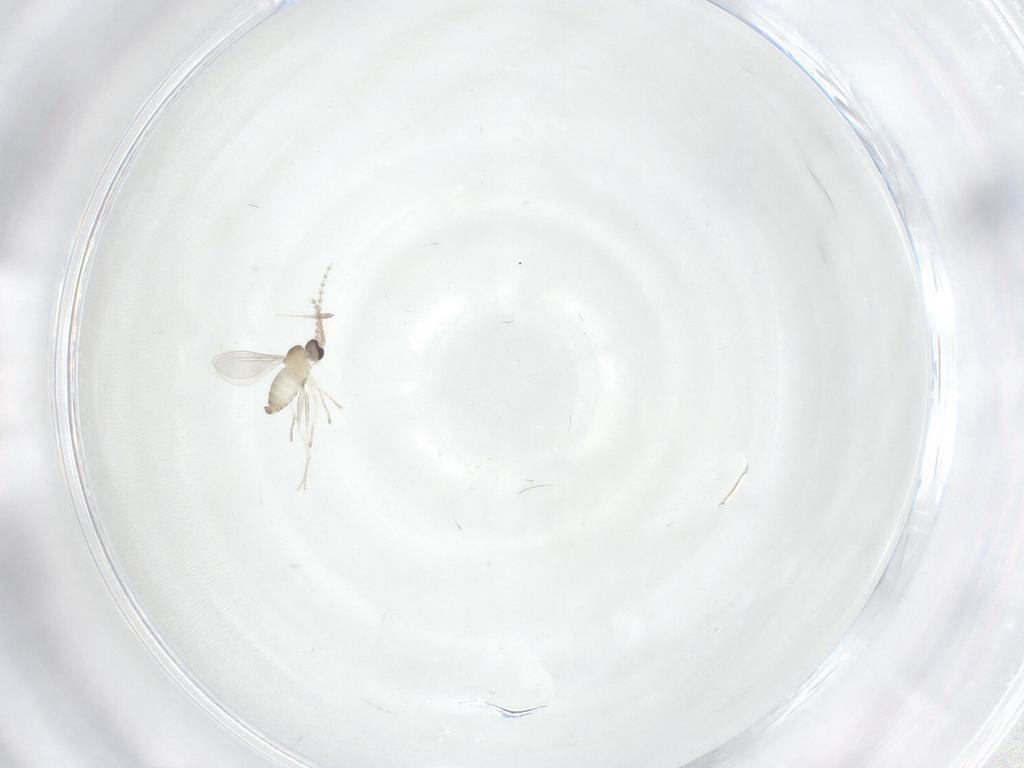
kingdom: Animalia
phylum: Arthropoda
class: Insecta
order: Diptera
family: Cecidomyiidae
